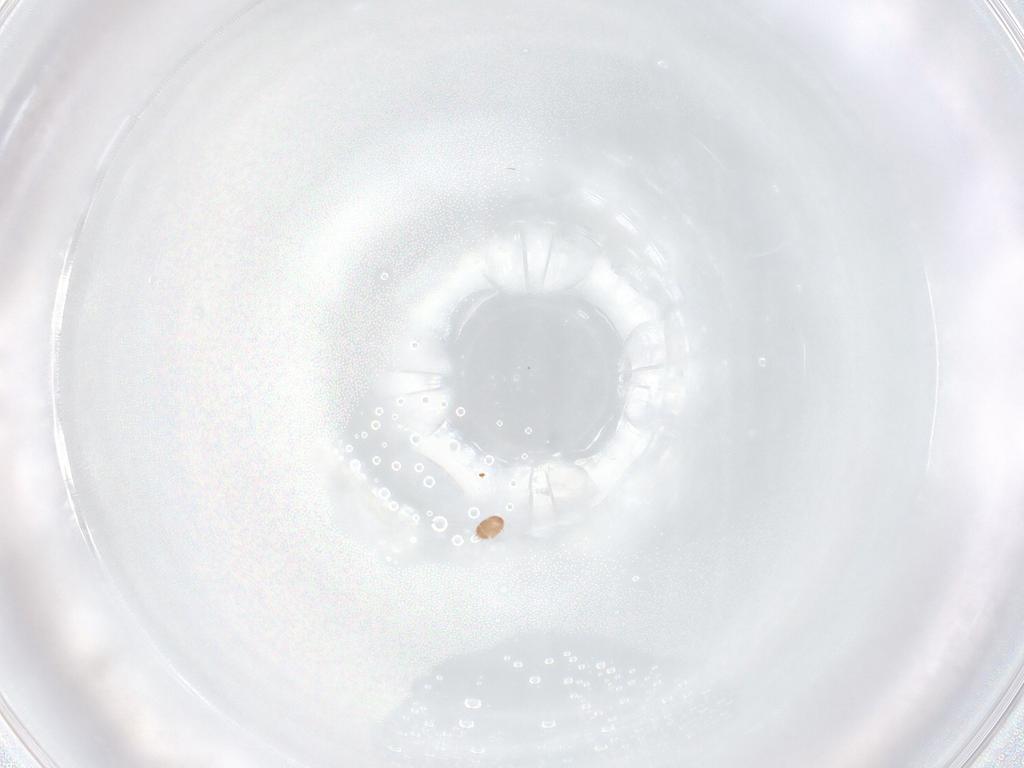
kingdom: Animalia
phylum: Arthropoda
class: Arachnida
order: Sarcoptiformes
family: Acaridae
